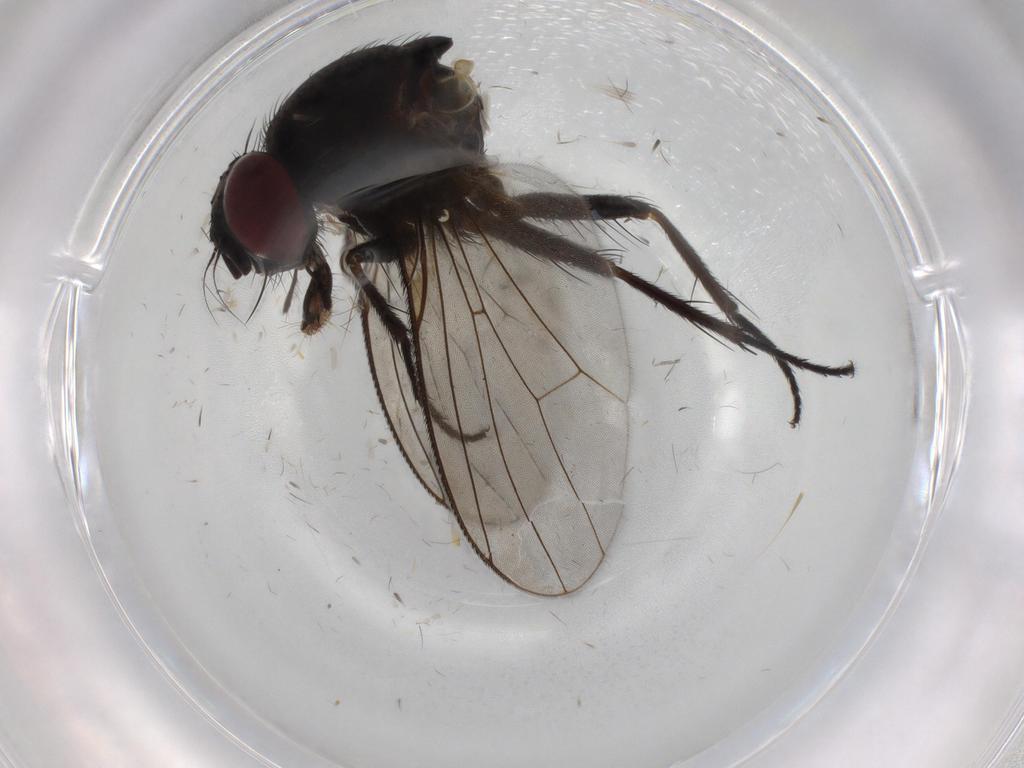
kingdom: Animalia
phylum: Arthropoda
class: Insecta
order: Diptera
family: Muscidae
